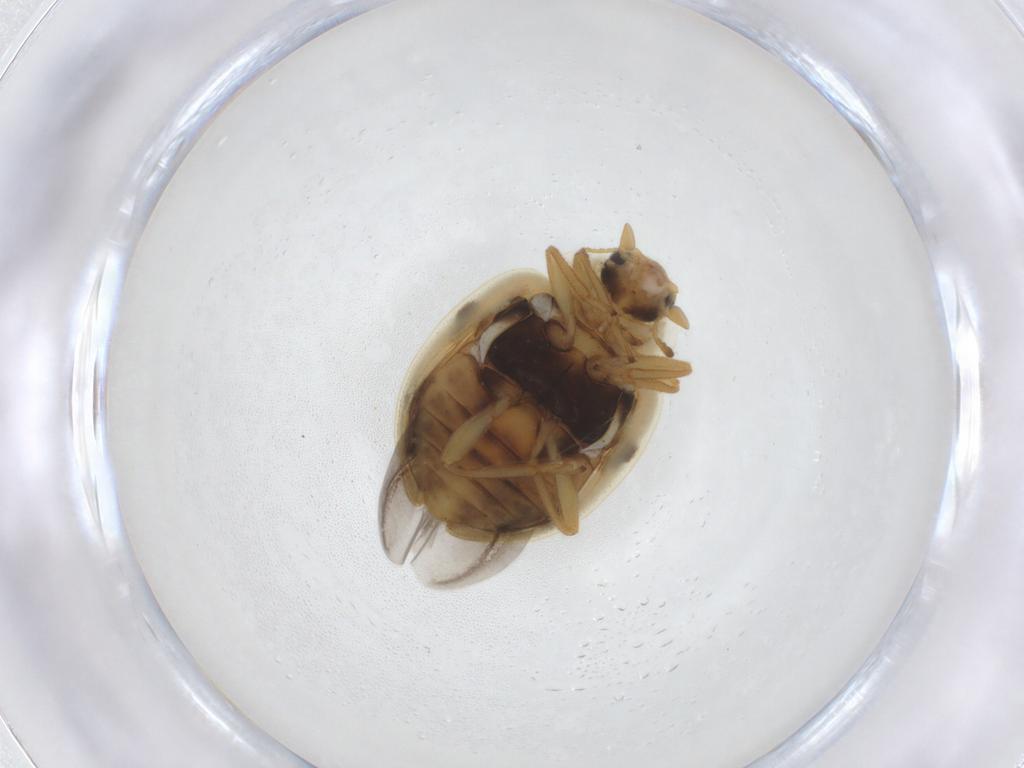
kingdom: Animalia
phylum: Arthropoda
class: Insecta
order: Coleoptera
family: Coccinellidae
